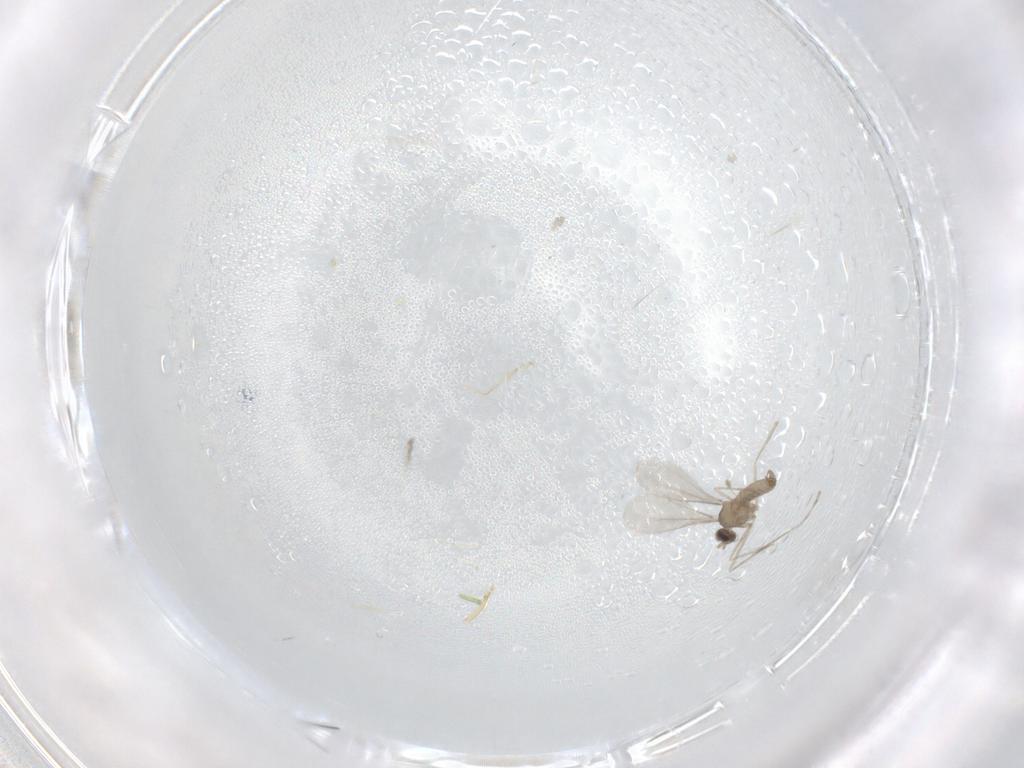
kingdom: Animalia
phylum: Arthropoda
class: Insecta
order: Diptera
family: Cecidomyiidae
